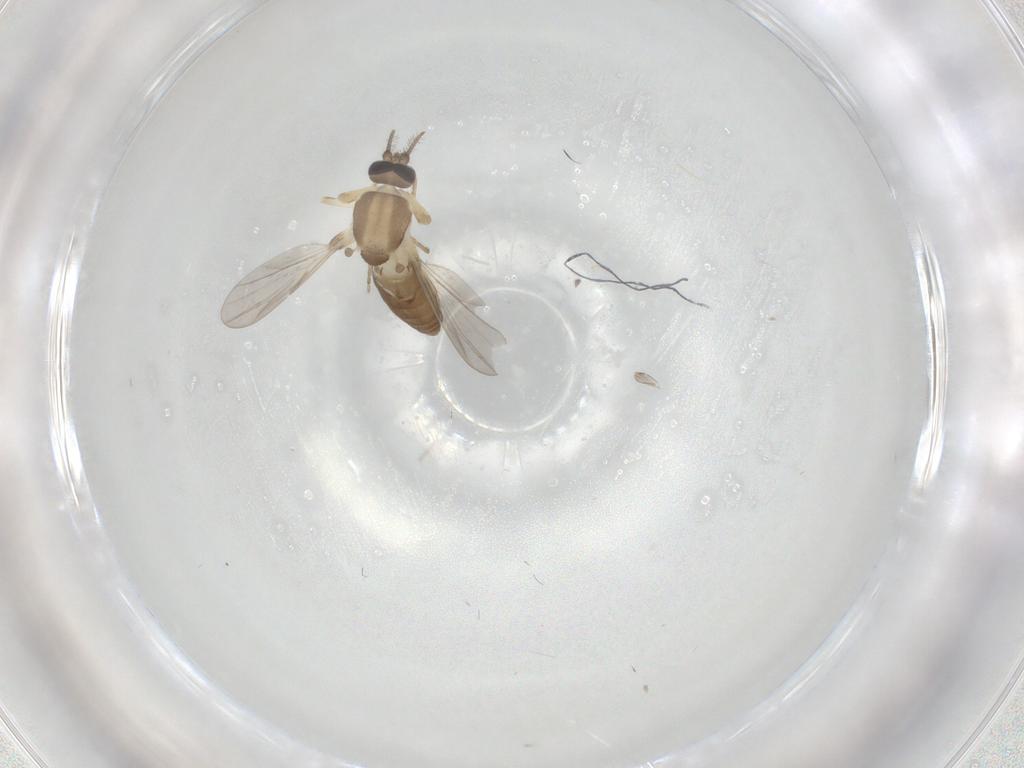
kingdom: Animalia
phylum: Arthropoda
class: Insecta
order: Diptera
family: Ceratopogonidae
